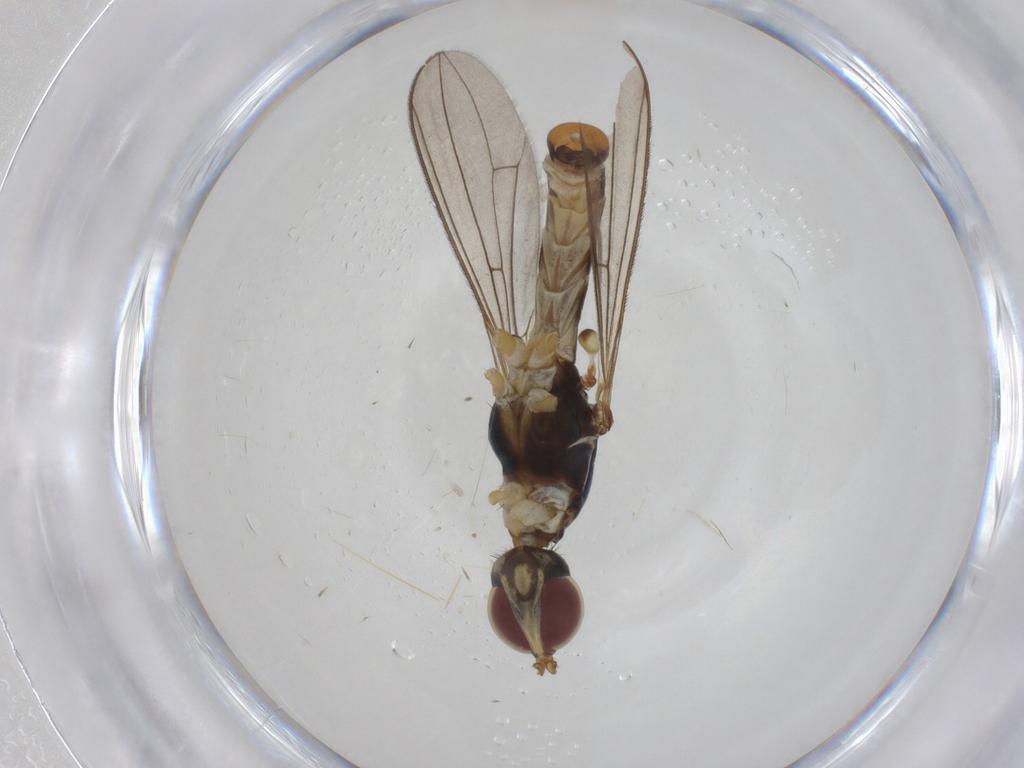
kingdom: Animalia
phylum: Arthropoda
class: Insecta
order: Diptera
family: Micropezidae
